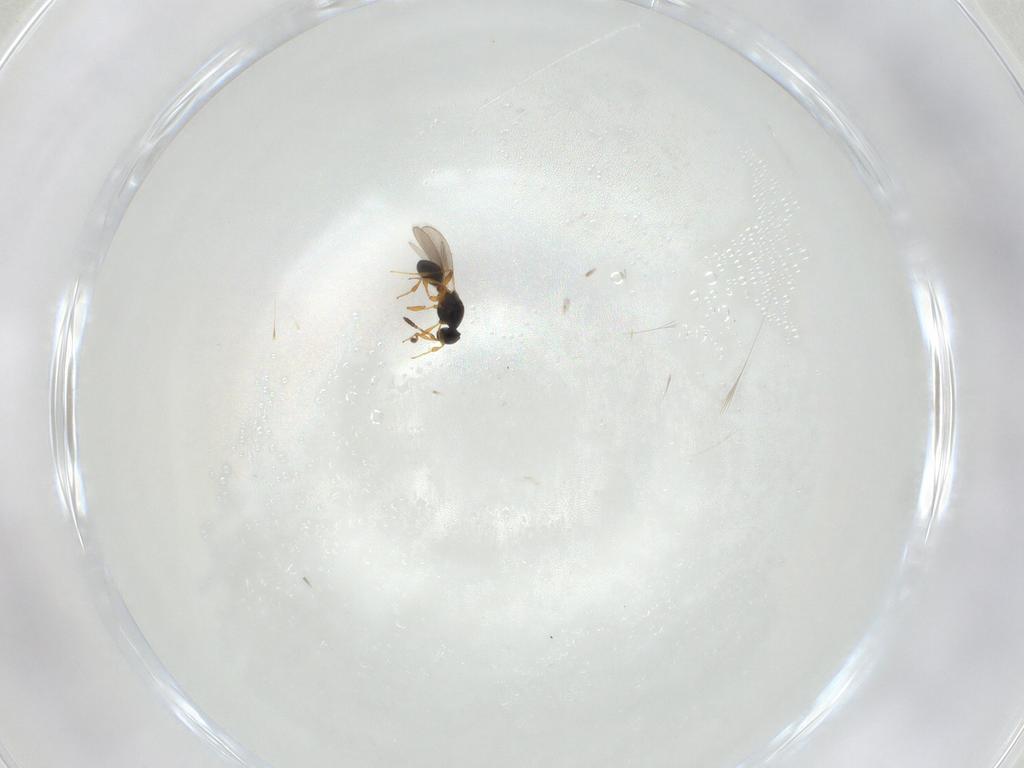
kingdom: Animalia
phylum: Arthropoda
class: Insecta
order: Hymenoptera
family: Platygastridae
